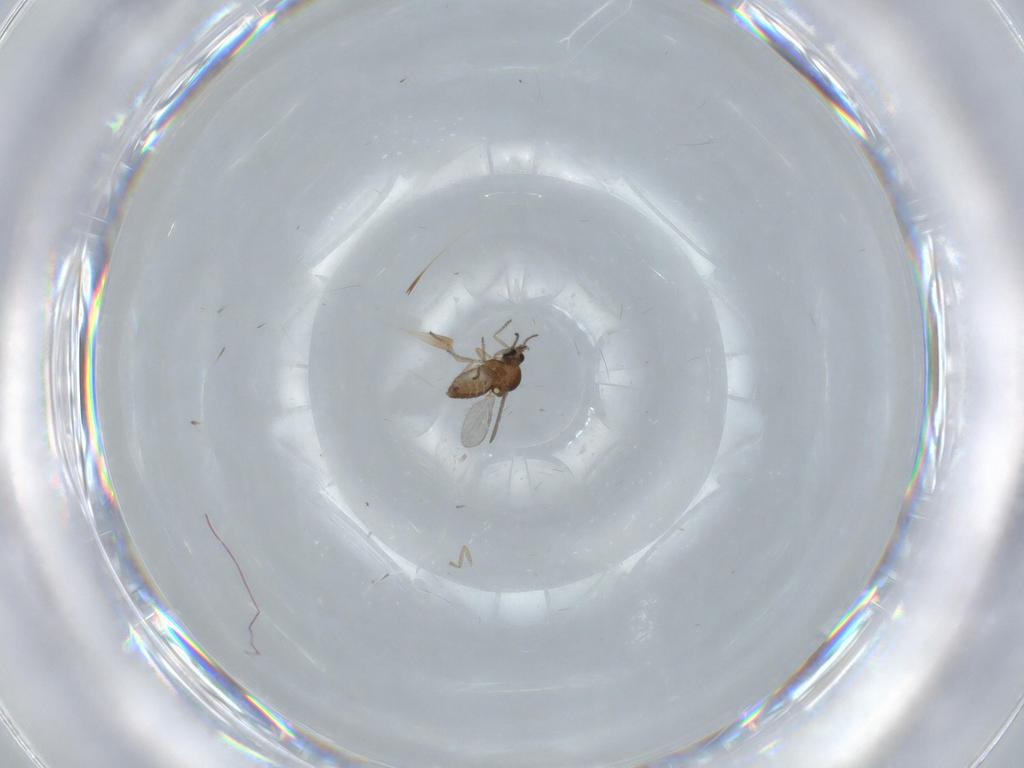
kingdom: Animalia
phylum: Arthropoda
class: Insecta
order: Diptera
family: Ceratopogonidae
